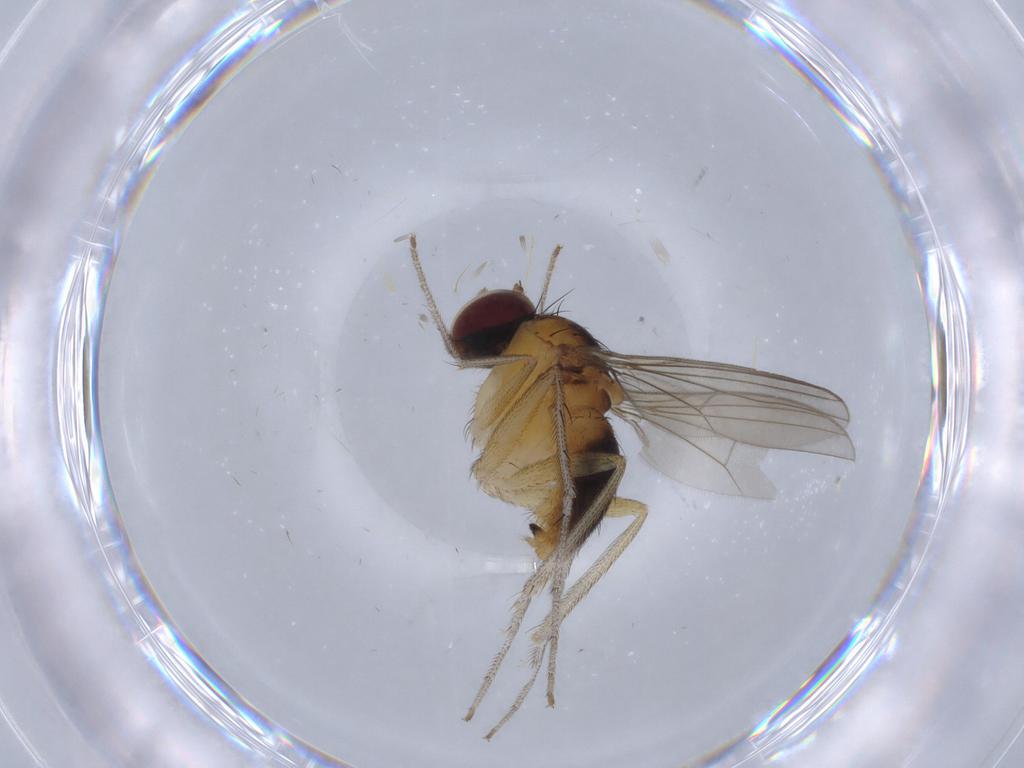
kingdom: Animalia
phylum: Arthropoda
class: Insecta
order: Diptera
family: Dolichopodidae
